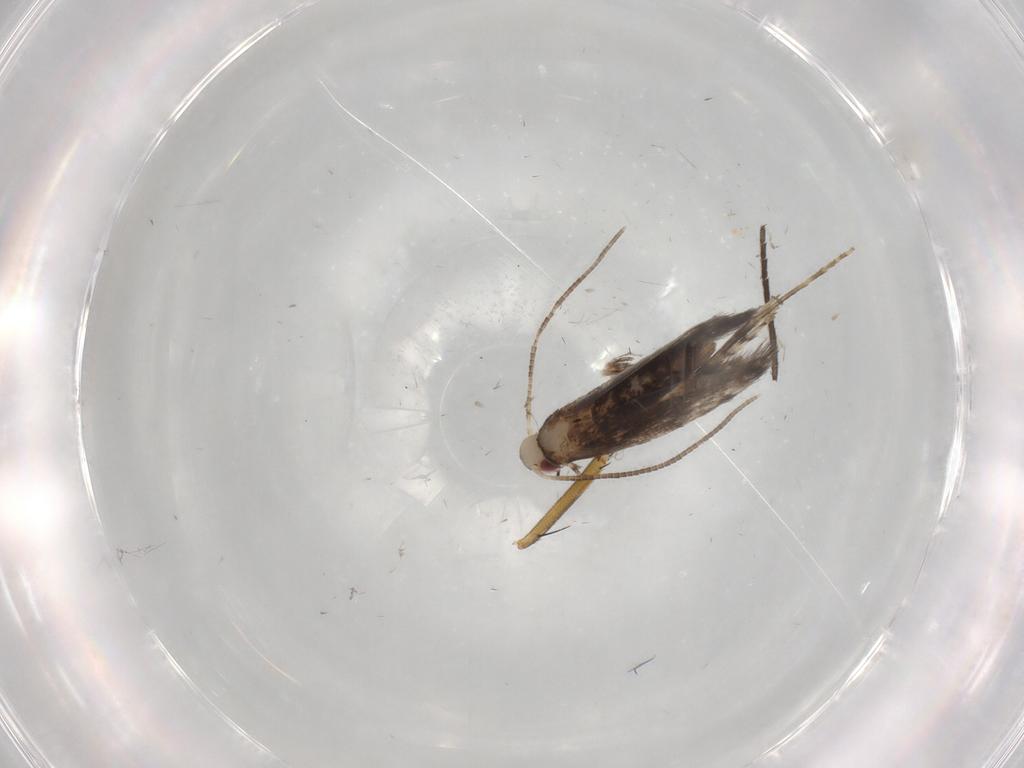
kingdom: Animalia
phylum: Arthropoda
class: Insecta
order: Lepidoptera
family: Gracillariidae
